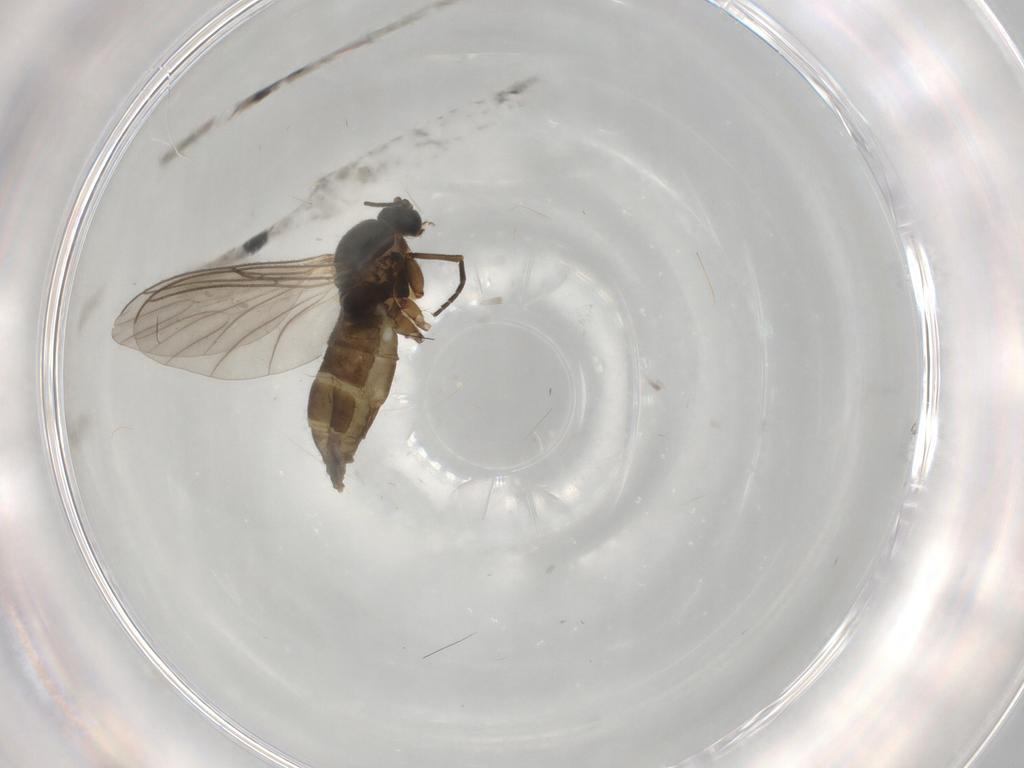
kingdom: Animalia
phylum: Arthropoda
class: Insecta
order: Diptera
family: Phoridae
